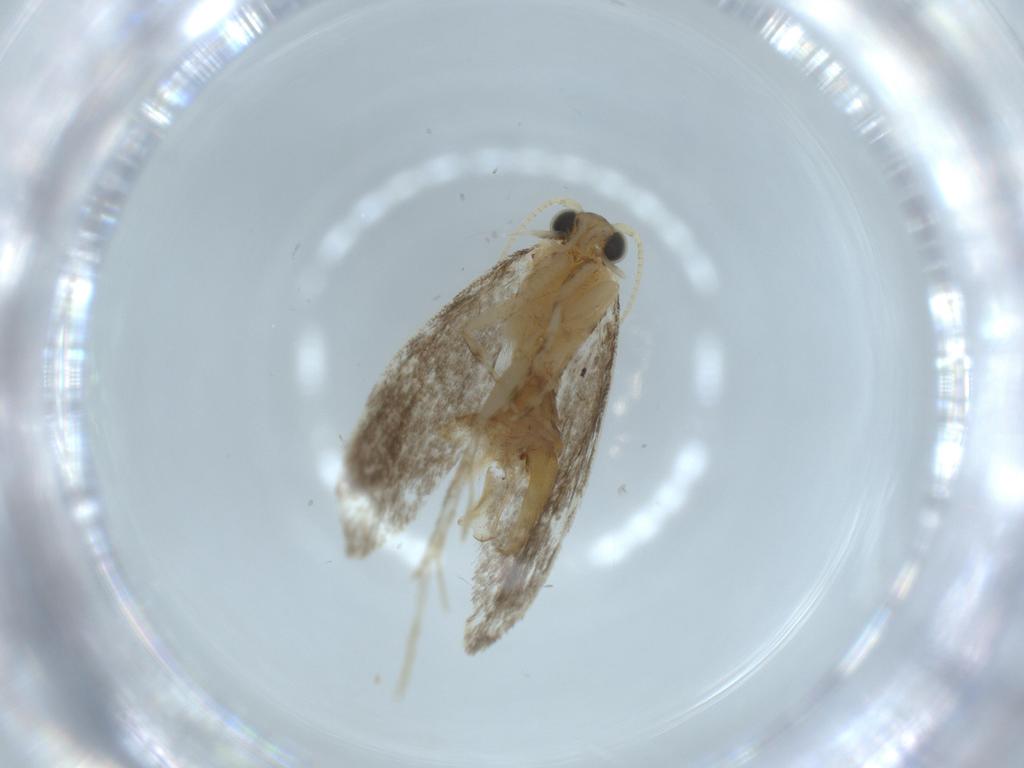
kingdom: Animalia
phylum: Arthropoda
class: Insecta
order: Lepidoptera
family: Tineidae
